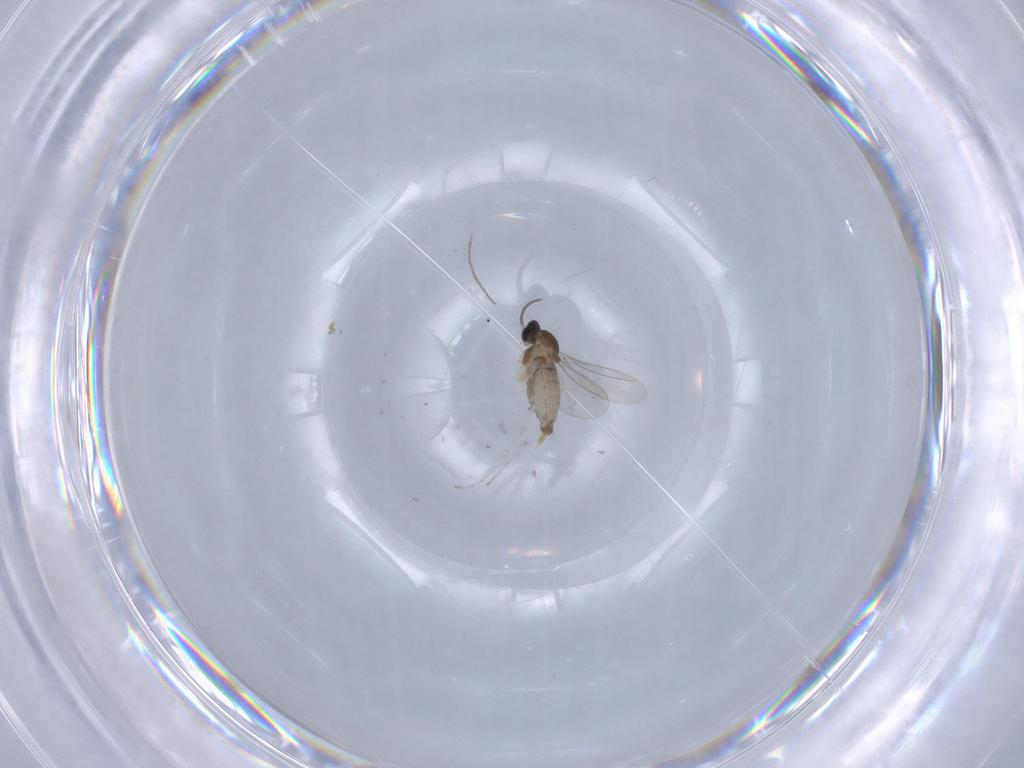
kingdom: Animalia
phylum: Arthropoda
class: Insecta
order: Diptera
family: Cecidomyiidae
